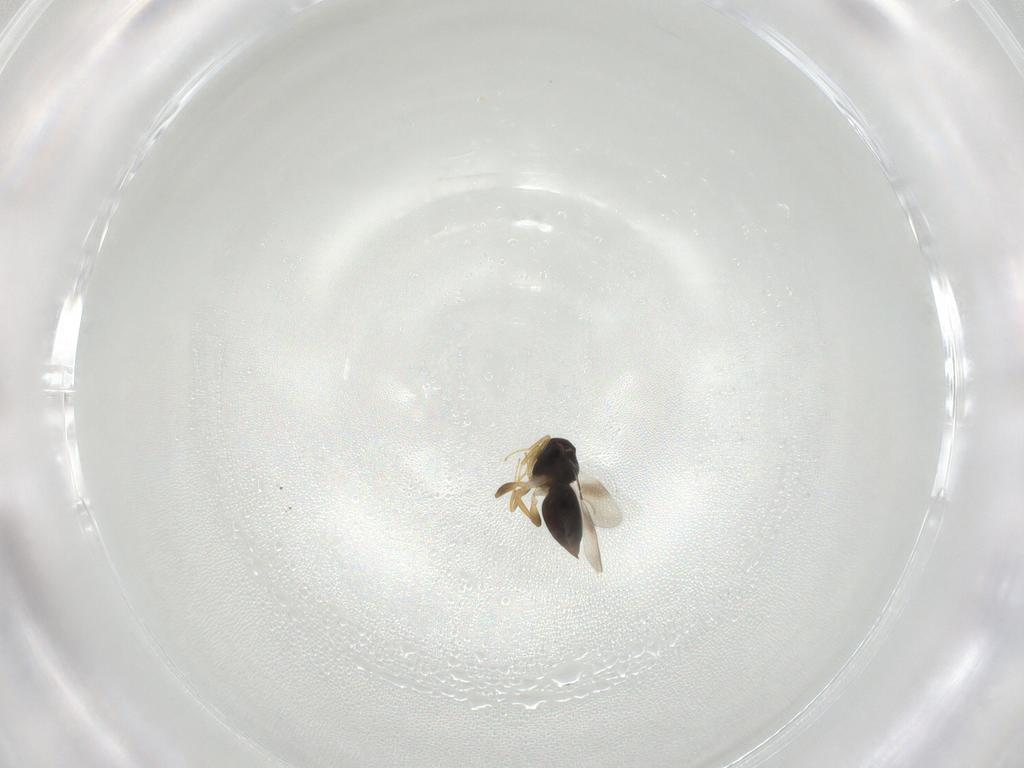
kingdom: Animalia
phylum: Arthropoda
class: Insecta
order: Hymenoptera
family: Ceraphronidae
